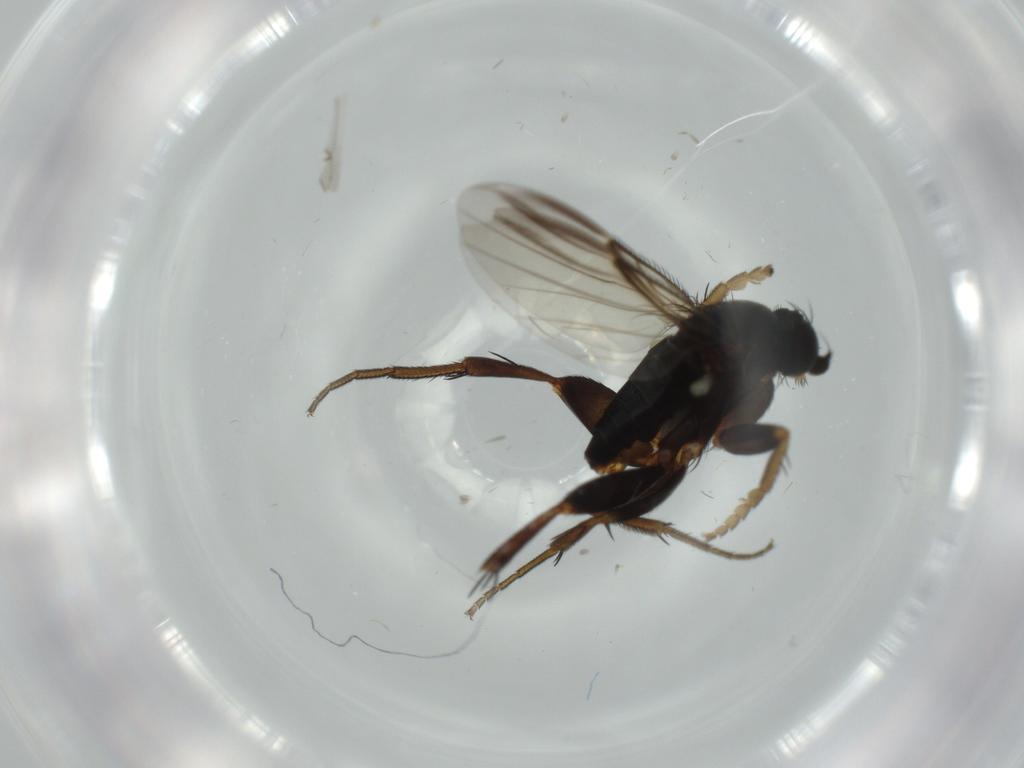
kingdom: Animalia
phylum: Arthropoda
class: Insecta
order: Diptera
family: Phoridae
